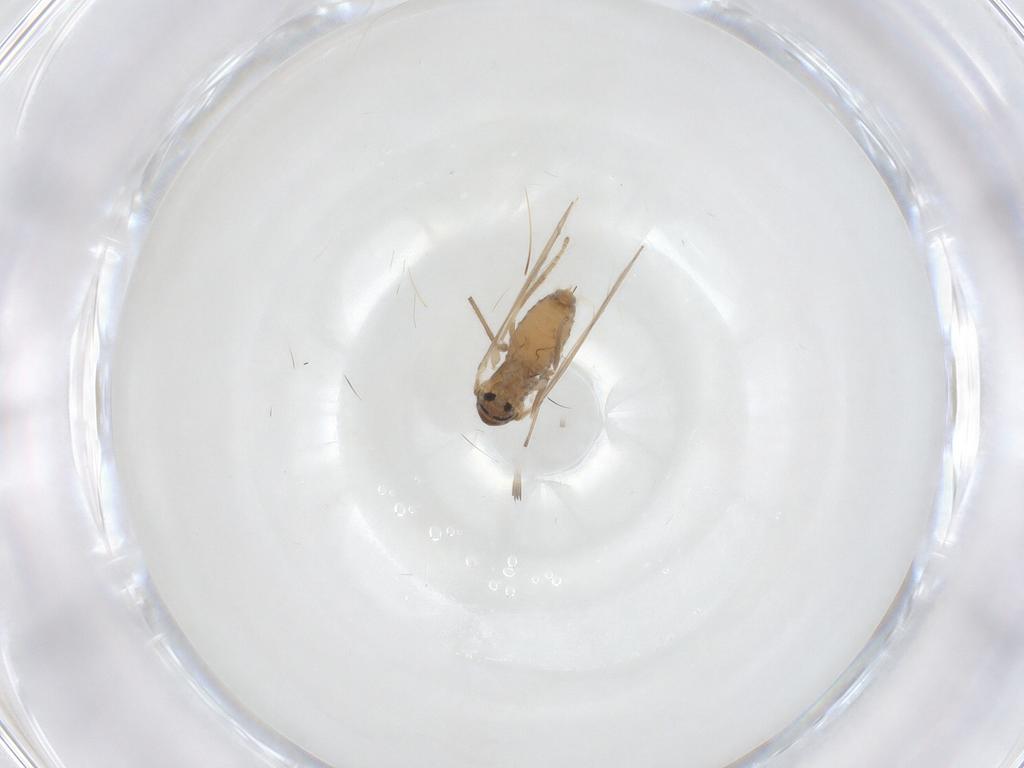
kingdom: Animalia
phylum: Arthropoda
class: Insecta
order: Diptera
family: Psychodidae
